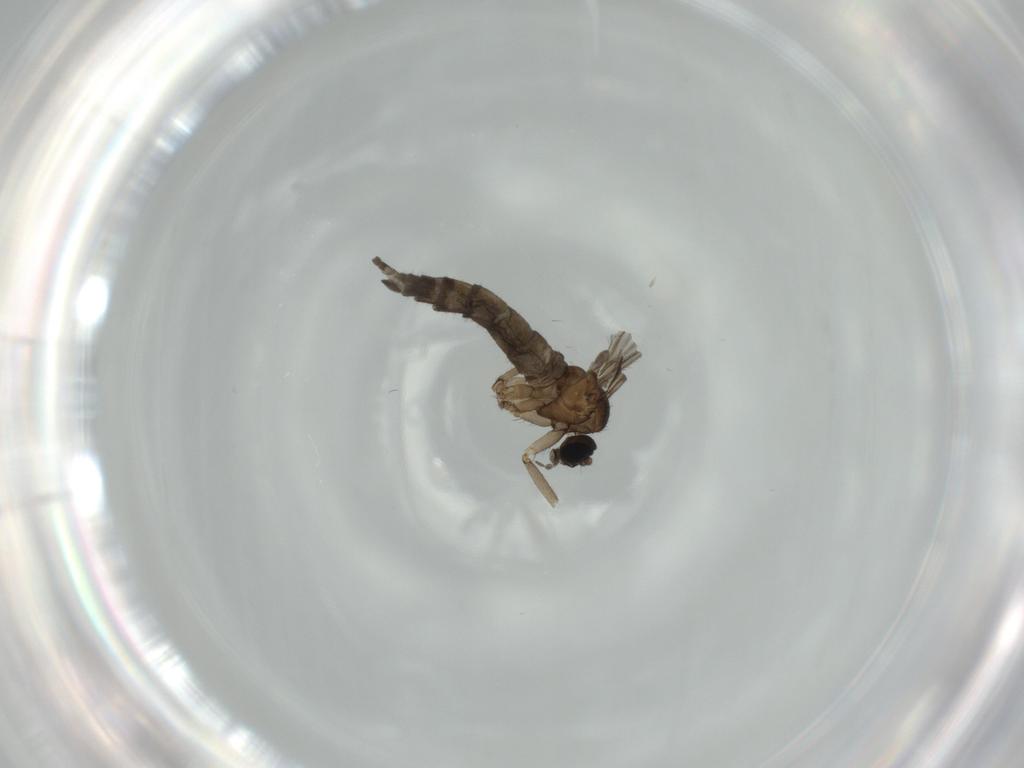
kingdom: Animalia
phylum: Arthropoda
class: Insecta
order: Diptera
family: Sciaridae
